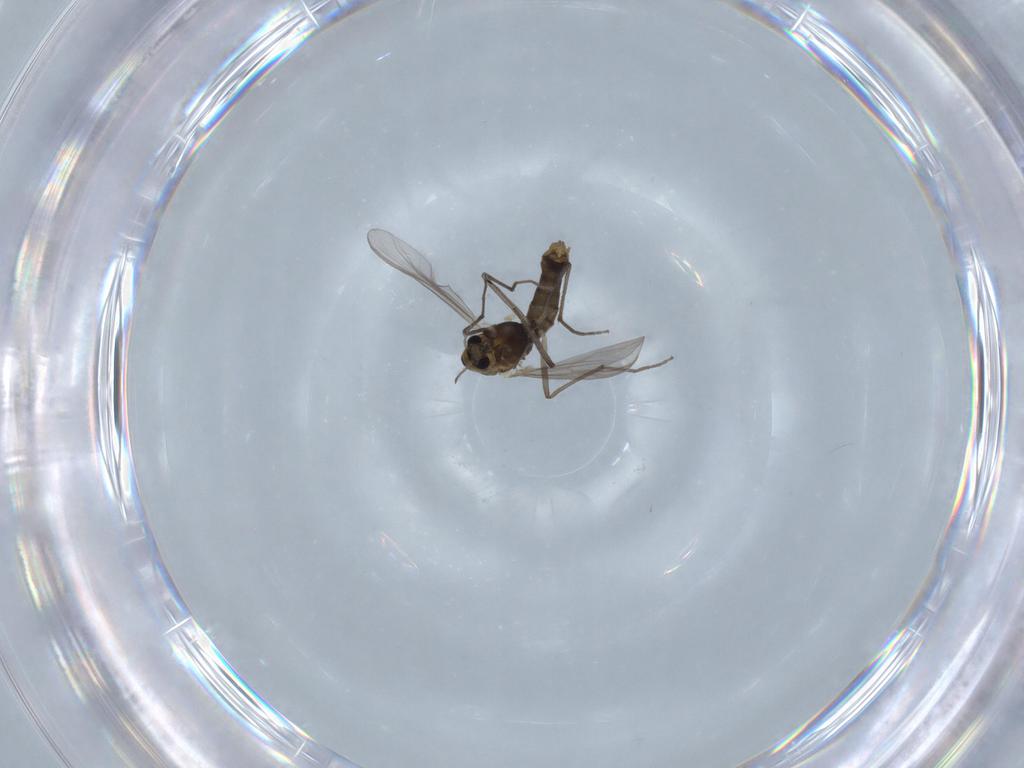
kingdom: Animalia
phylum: Arthropoda
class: Insecta
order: Diptera
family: Chironomidae
